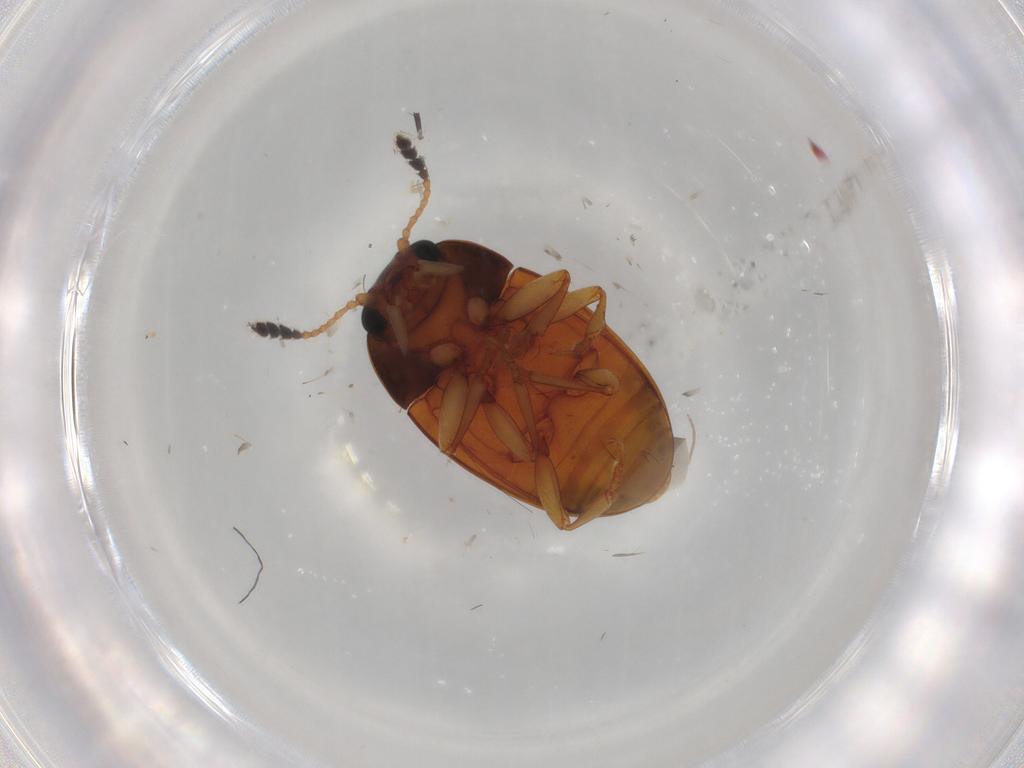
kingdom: Animalia
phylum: Arthropoda
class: Insecta
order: Coleoptera
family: Erotylidae
